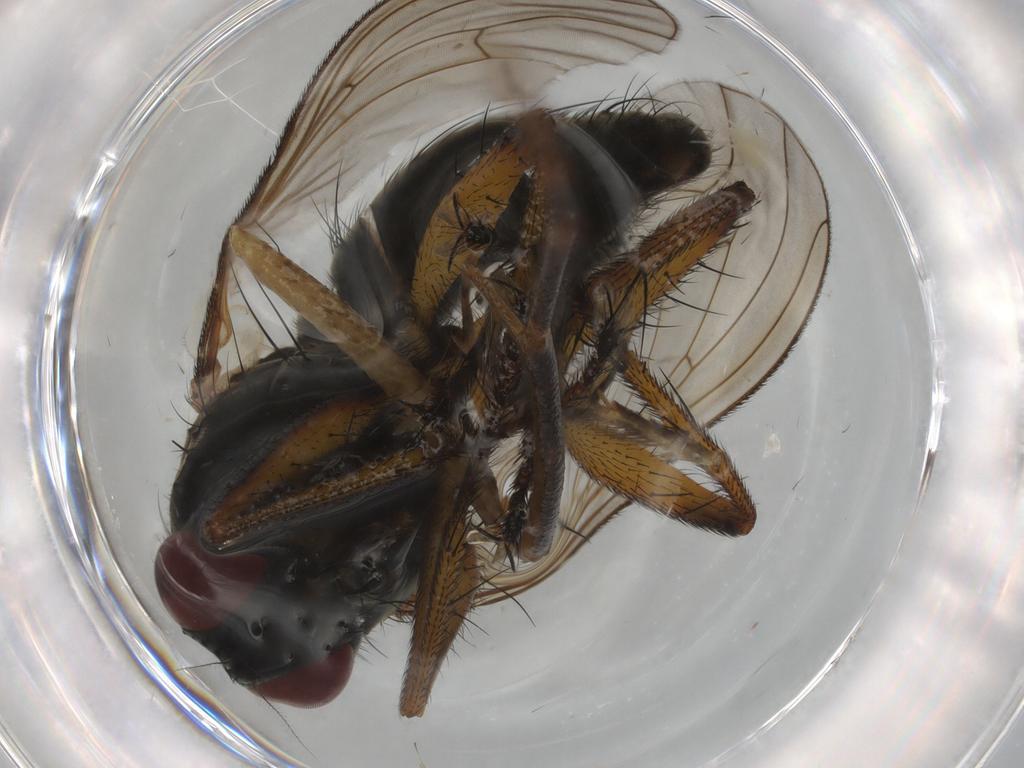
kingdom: Animalia
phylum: Arthropoda
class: Insecta
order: Diptera
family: Muscidae
